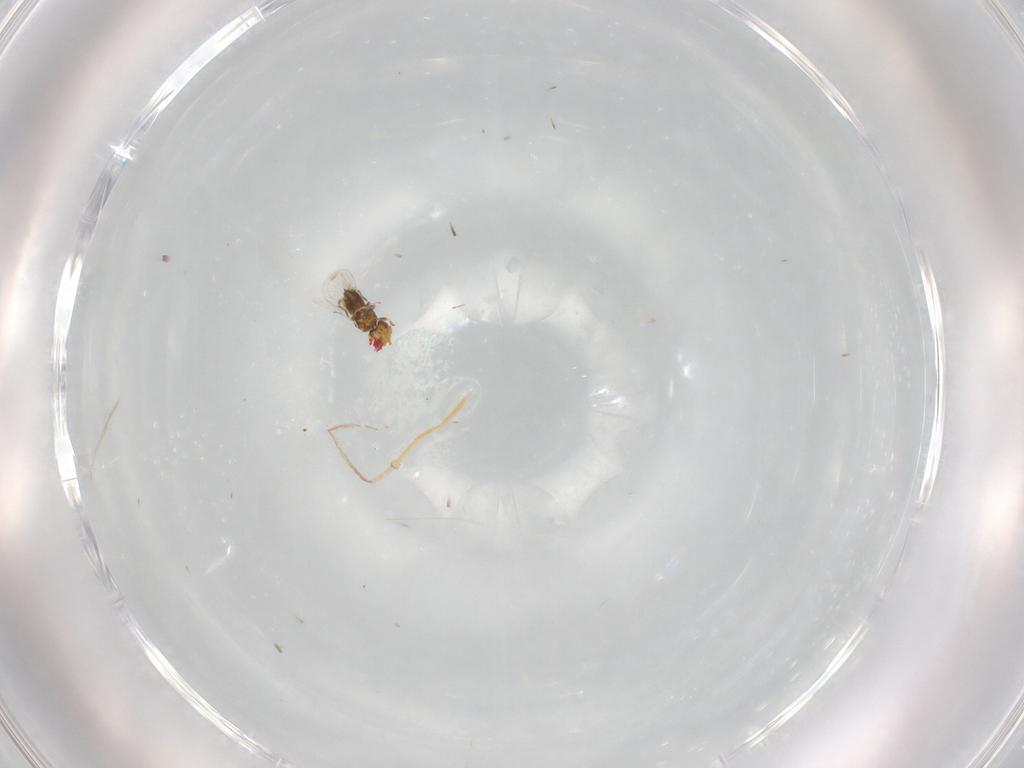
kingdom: Animalia
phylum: Arthropoda
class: Insecta
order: Hymenoptera
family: Trichogrammatidae
